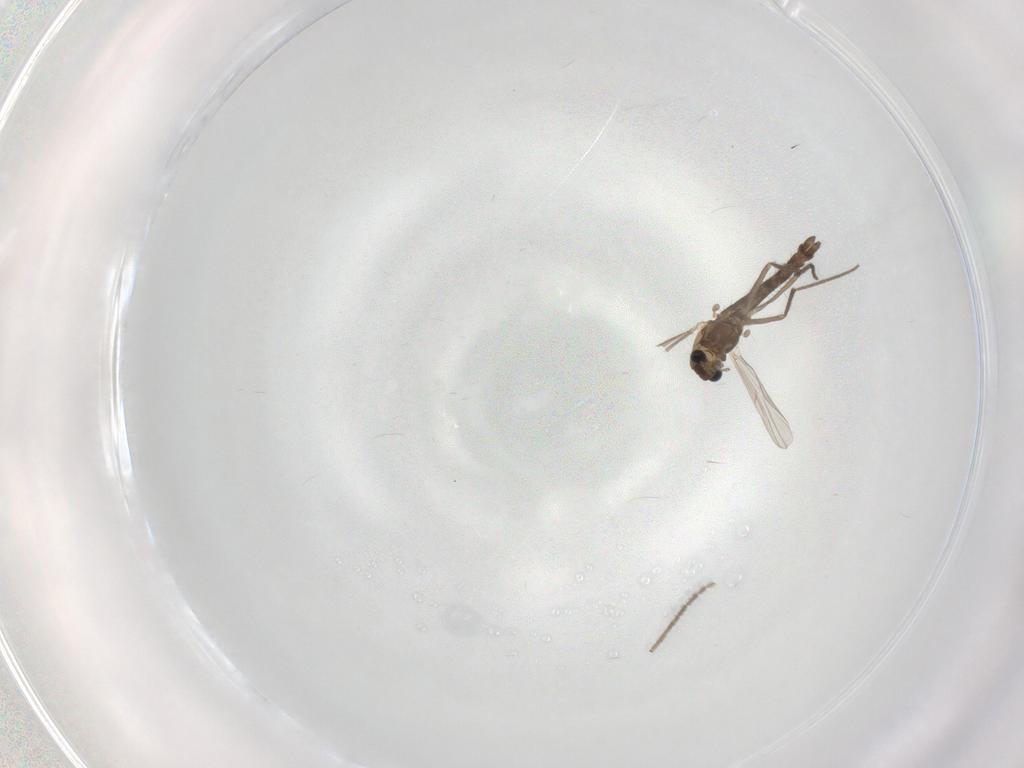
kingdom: Animalia
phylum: Arthropoda
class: Insecta
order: Diptera
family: Chironomidae
